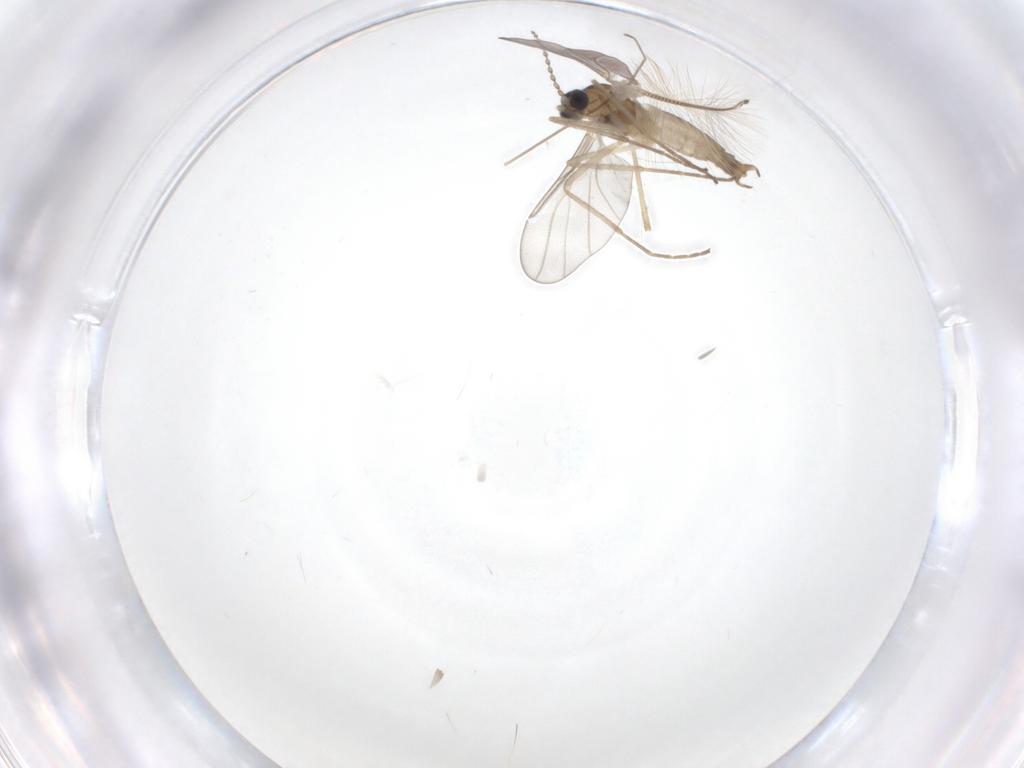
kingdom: Animalia
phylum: Arthropoda
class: Insecta
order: Diptera
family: Chironomidae
